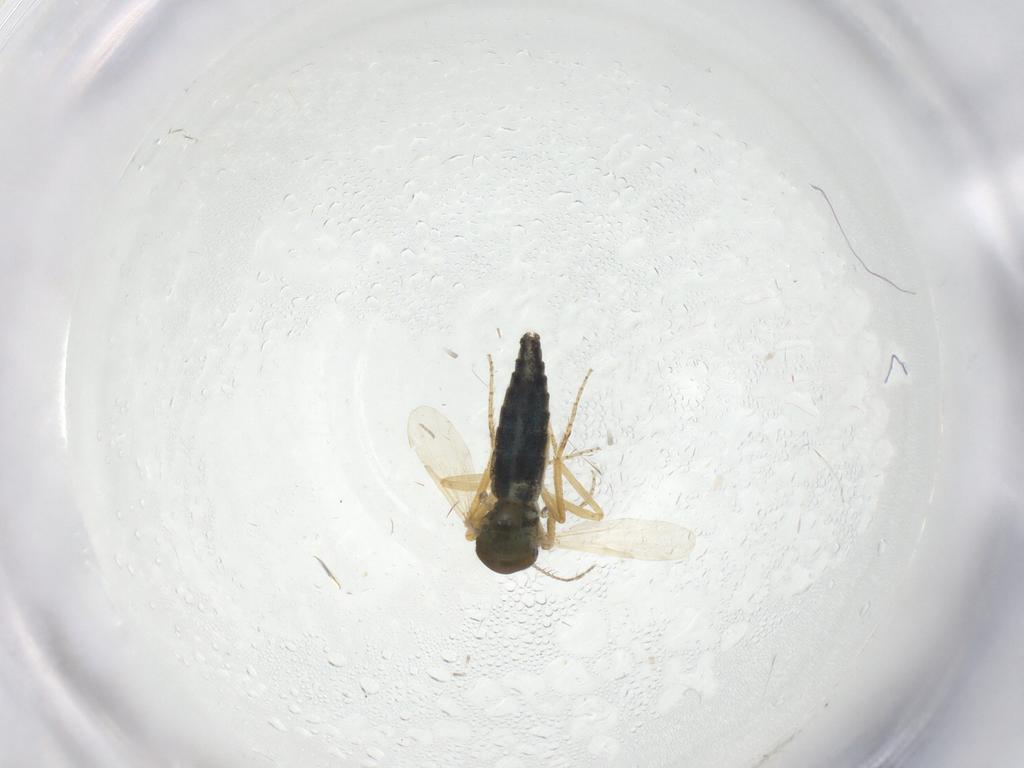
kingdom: Animalia
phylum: Arthropoda
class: Insecta
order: Diptera
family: Ceratopogonidae
